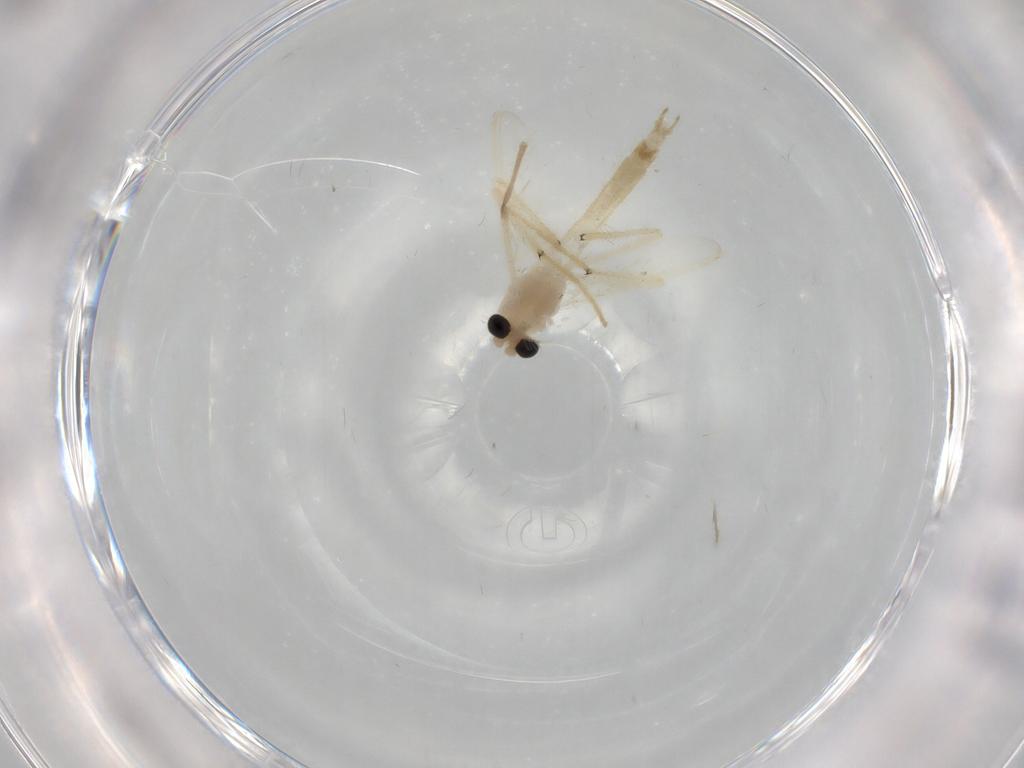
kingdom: Animalia
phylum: Arthropoda
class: Insecta
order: Diptera
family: Chironomidae
